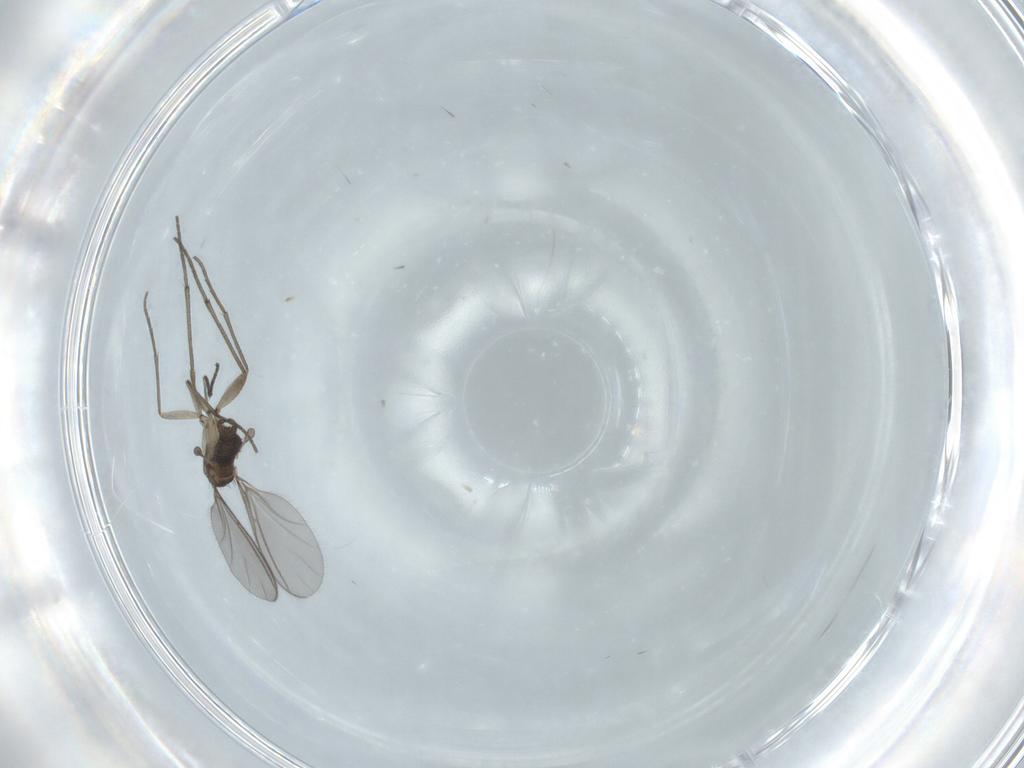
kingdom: Animalia
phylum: Arthropoda
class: Insecta
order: Diptera
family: Sciaridae
